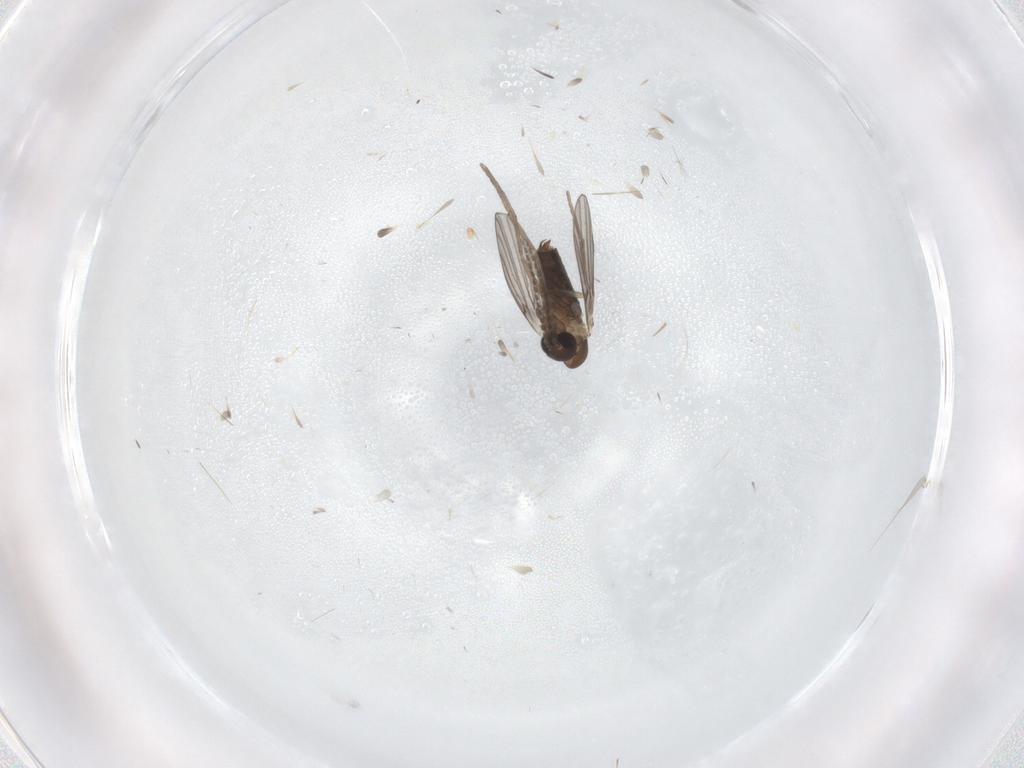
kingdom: Animalia
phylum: Arthropoda
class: Insecta
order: Diptera
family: Psychodidae
